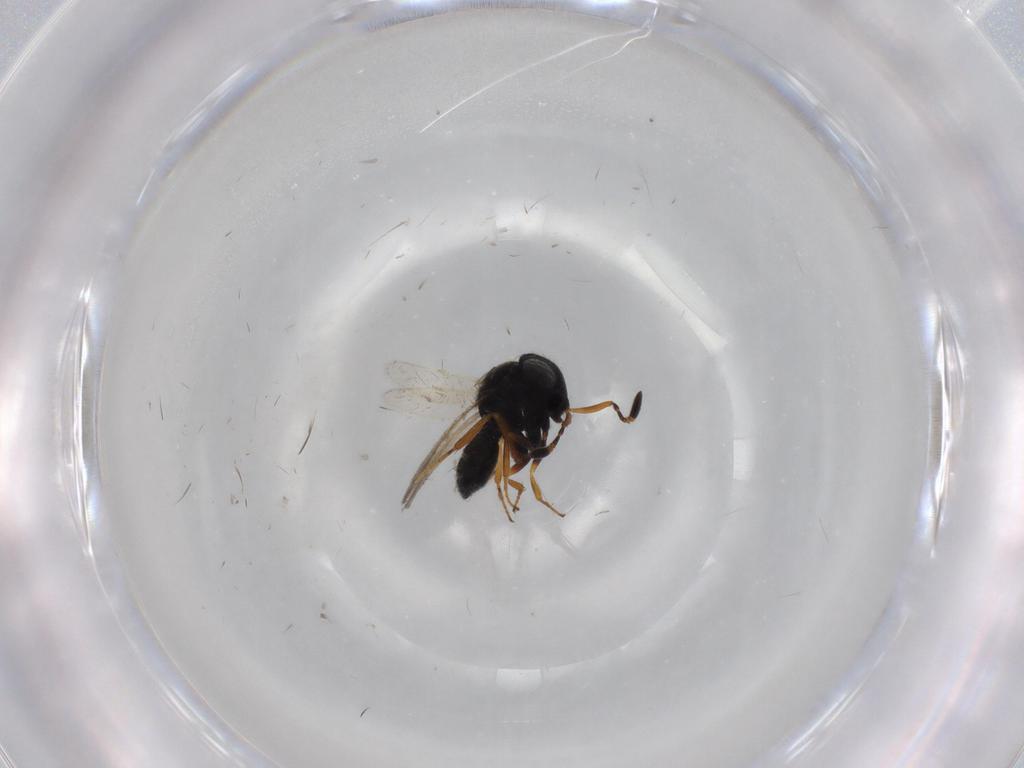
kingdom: Animalia
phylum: Arthropoda
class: Insecta
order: Hymenoptera
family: Scelionidae
